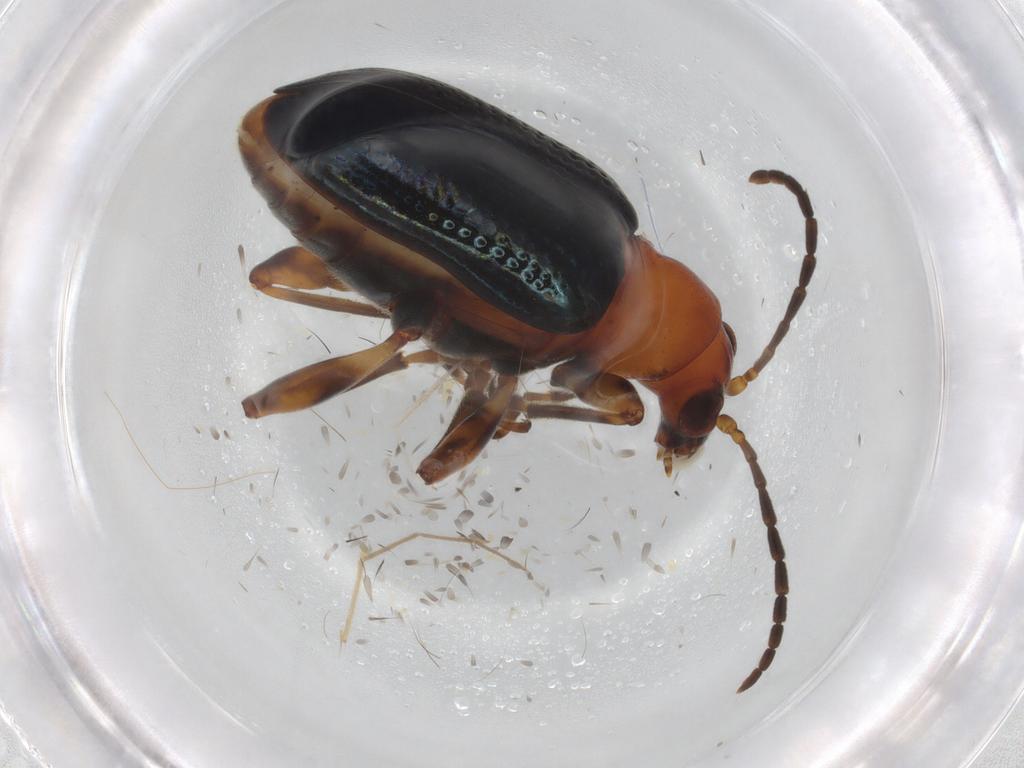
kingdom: Animalia
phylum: Arthropoda
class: Insecta
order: Coleoptera
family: Chrysomelidae
